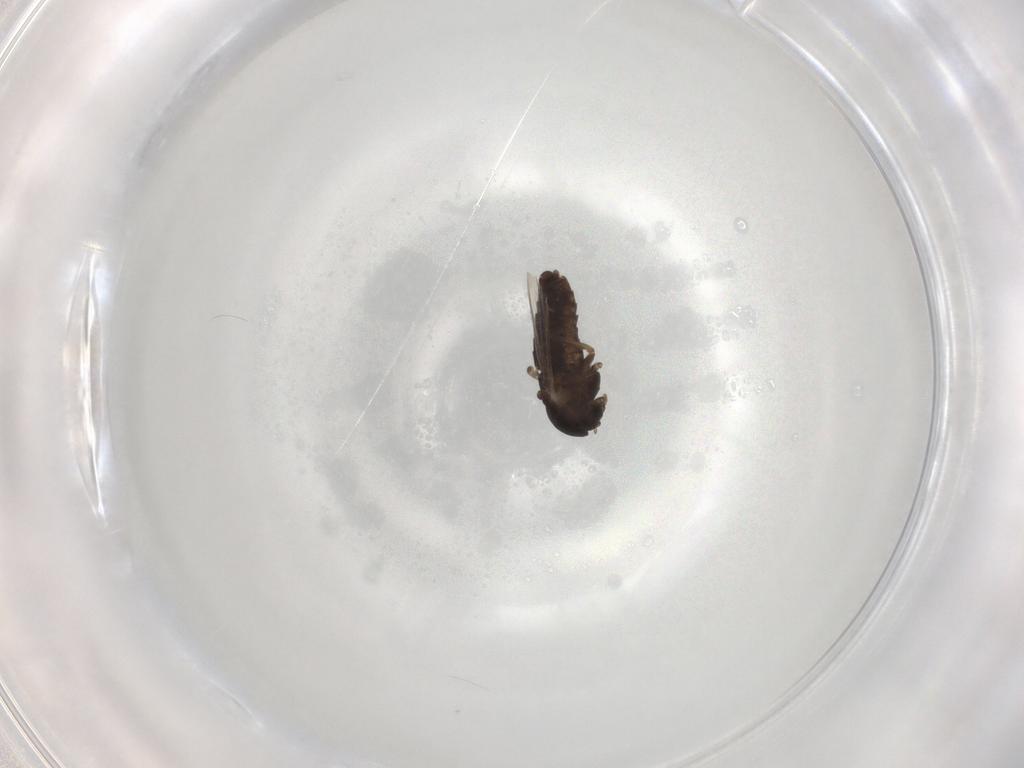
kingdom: Animalia
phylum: Arthropoda
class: Insecta
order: Diptera
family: Chironomidae
